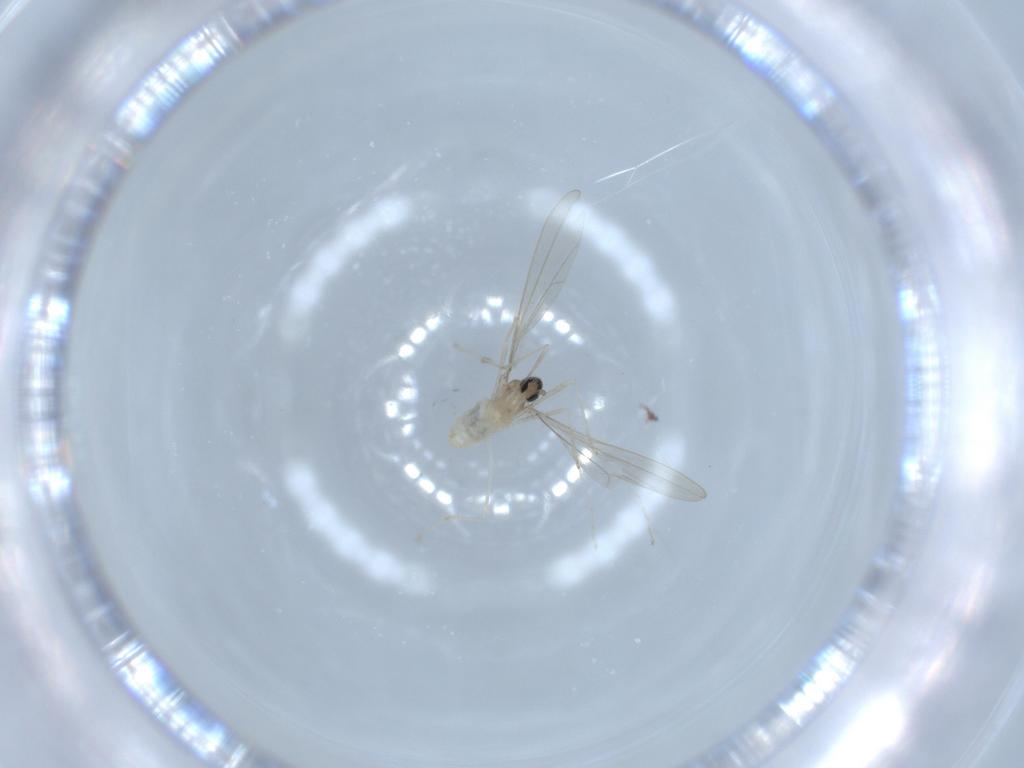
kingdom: Animalia
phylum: Arthropoda
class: Insecta
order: Diptera
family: Cecidomyiidae
